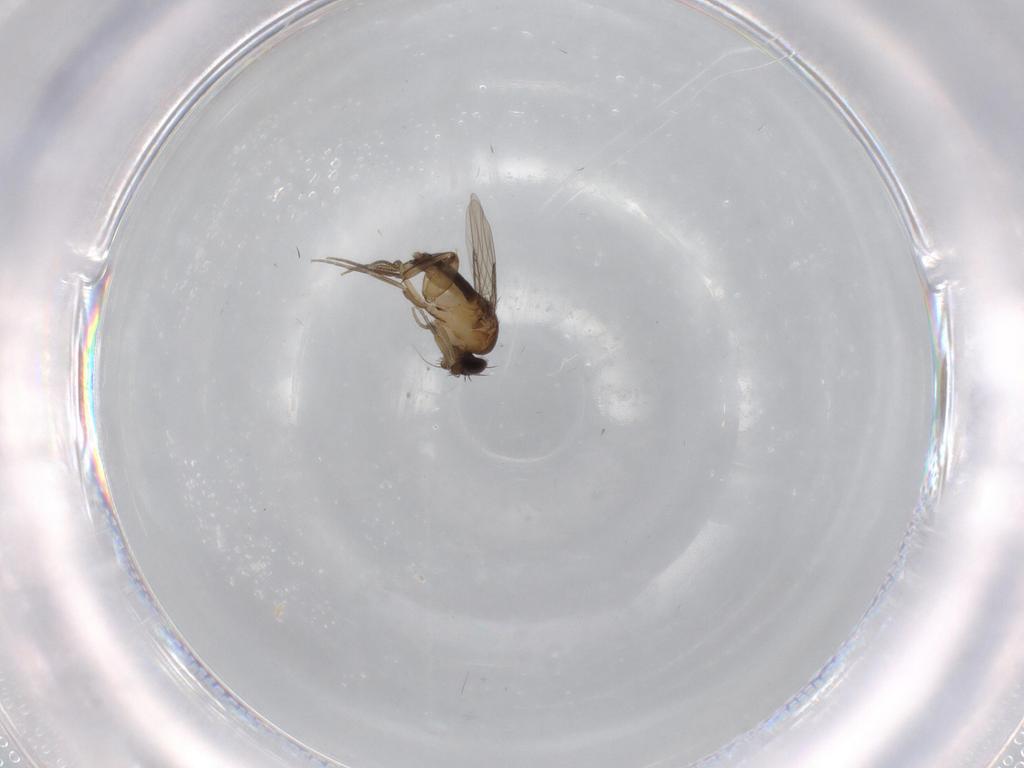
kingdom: Animalia
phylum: Arthropoda
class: Insecta
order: Diptera
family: Phoridae
